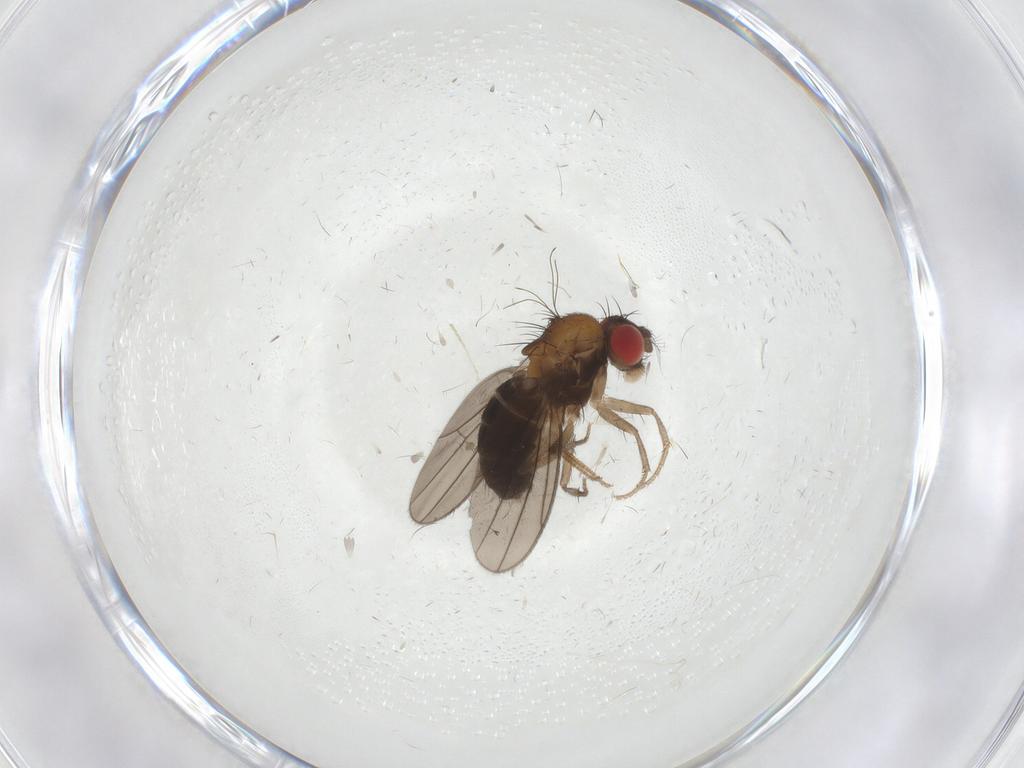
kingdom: Animalia
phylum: Arthropoda
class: Insecta
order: Diptera
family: Drosophilidae
